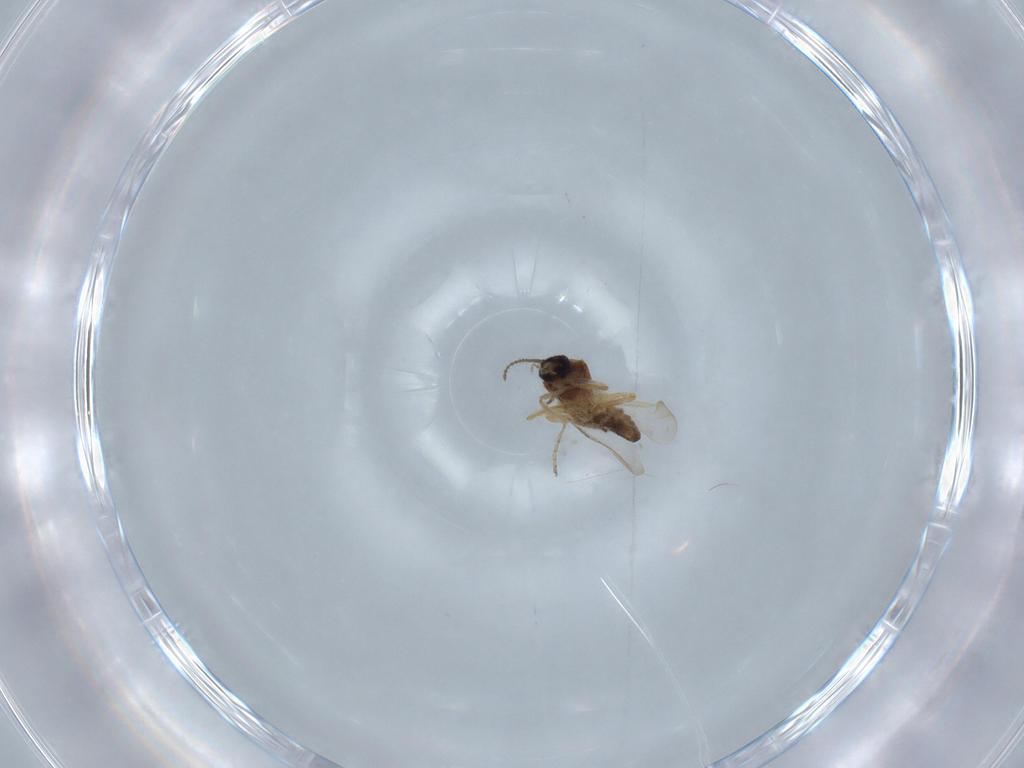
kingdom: Animalia
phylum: Arthropoda
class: Insecta
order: Diptera
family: Ceratopogonidae
